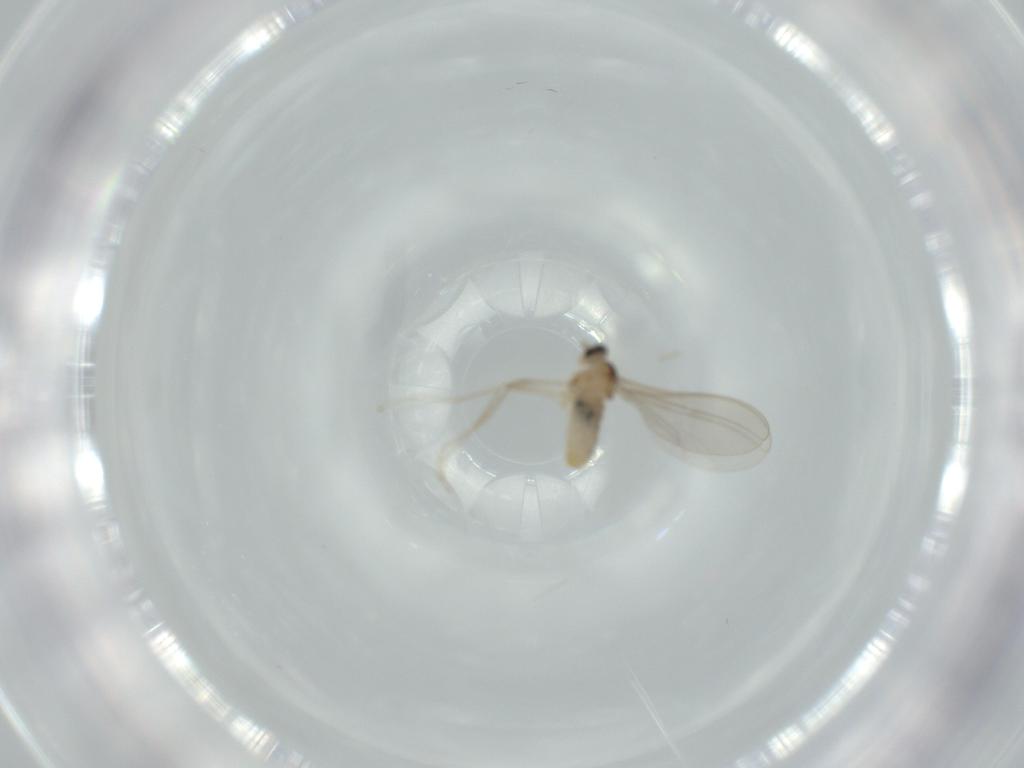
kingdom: Animalia
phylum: Arthropoda
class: Insecta
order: Diptera
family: Cecidomyiidae
